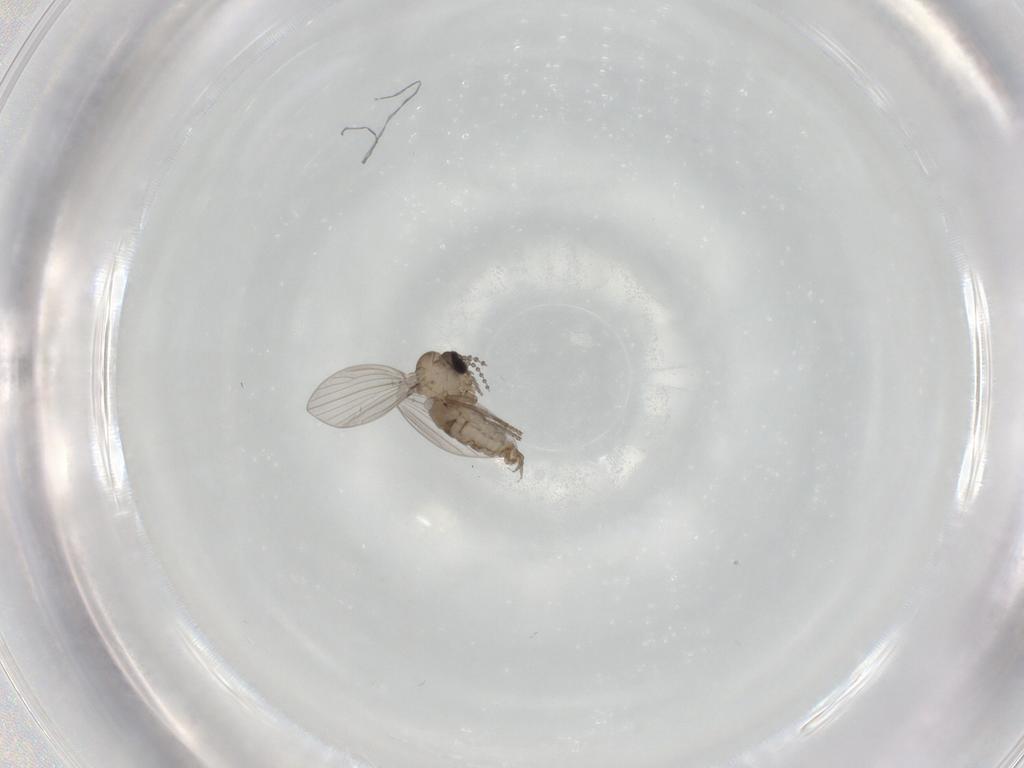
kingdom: Animalia
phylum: Arthropoda
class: Insecta
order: Diptera
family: Psychodidae
